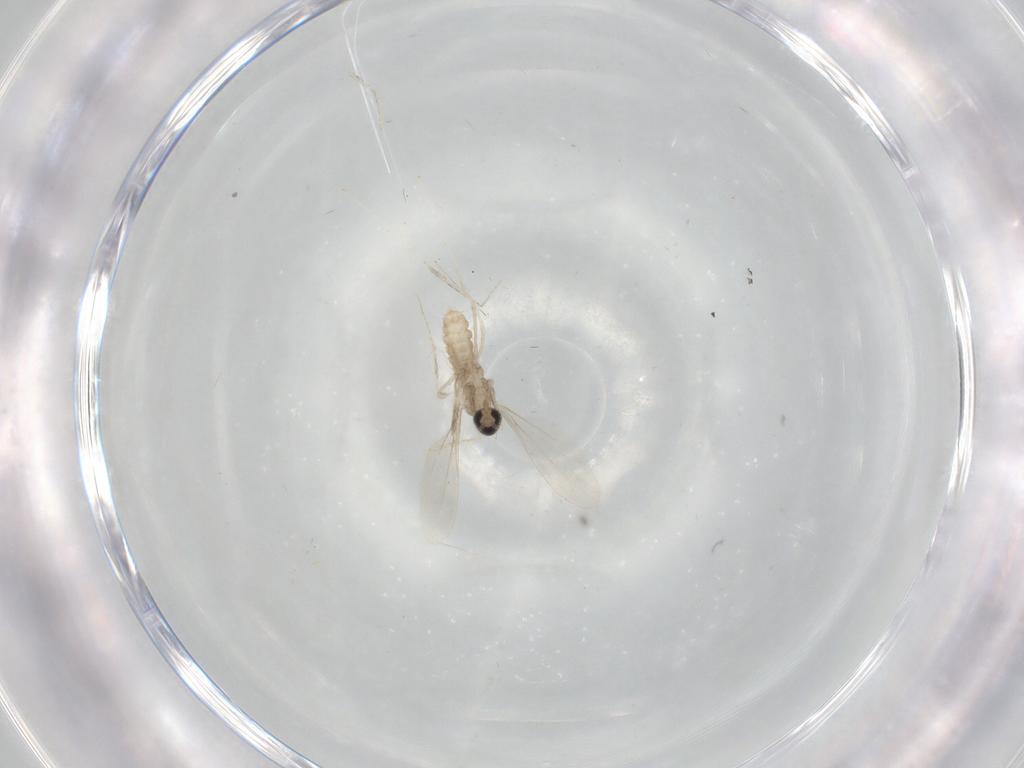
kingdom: Animalia
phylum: Arthropoda
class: Insecta
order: Diptera
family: Cecidomyiidae
